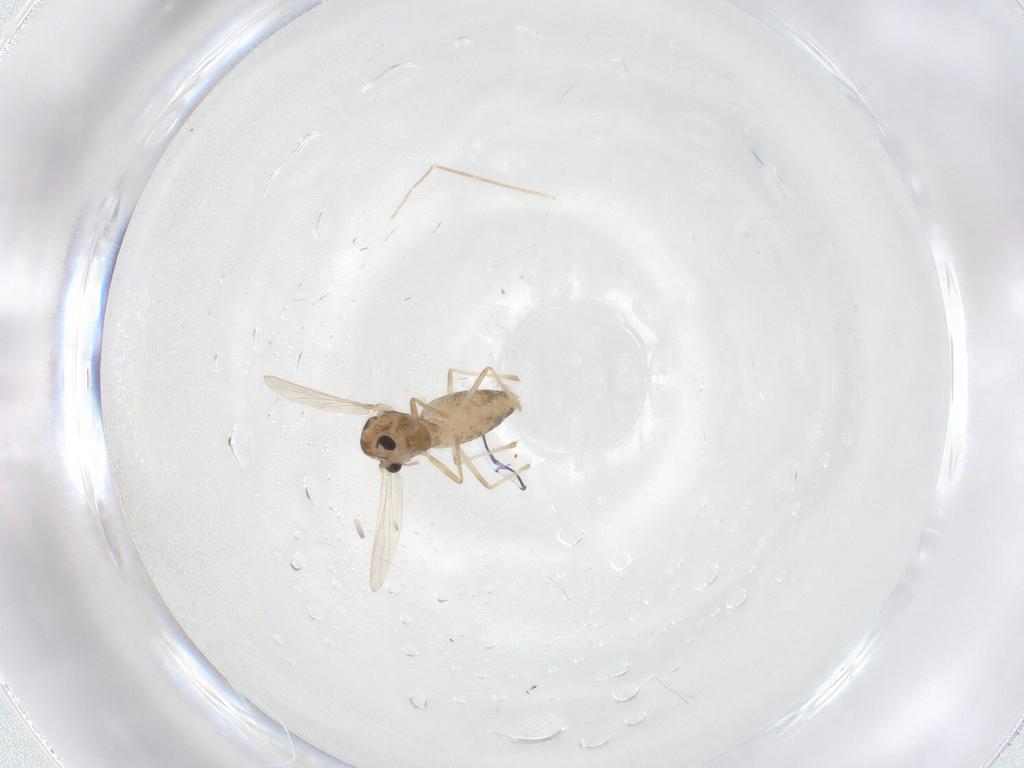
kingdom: Animalia
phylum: Arthropoda
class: Insecta
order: Diptera
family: Chironomidae
